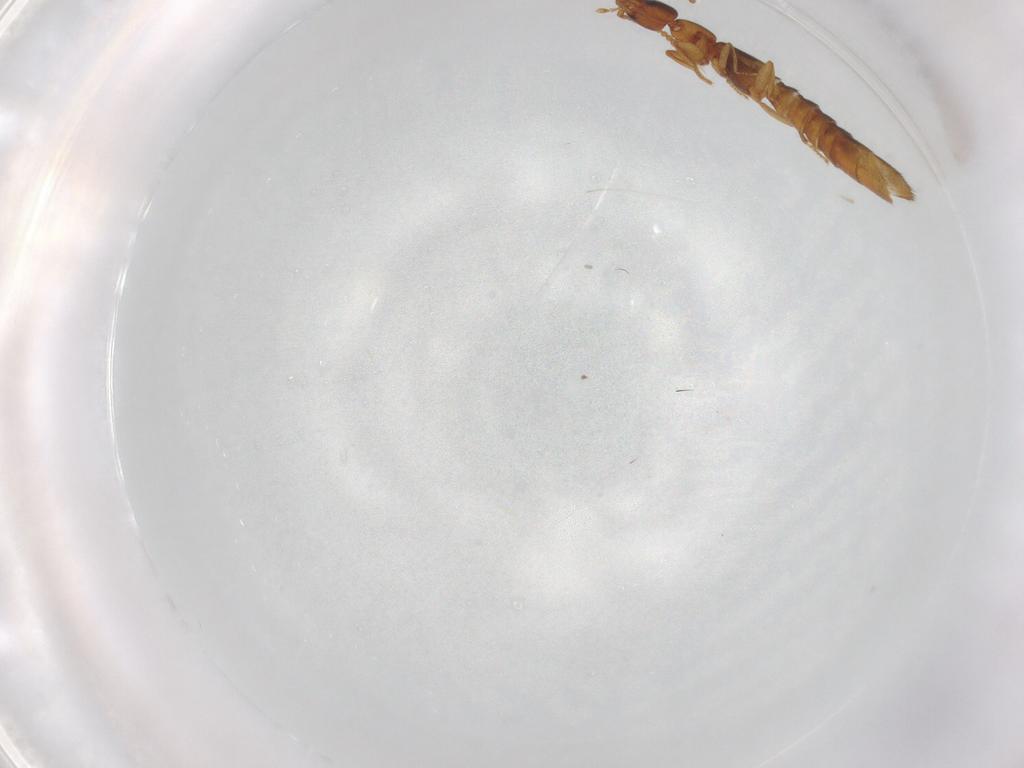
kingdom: Animalia
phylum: Arthropoda
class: Insecta
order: Coleoptera
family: Staphylinidae
